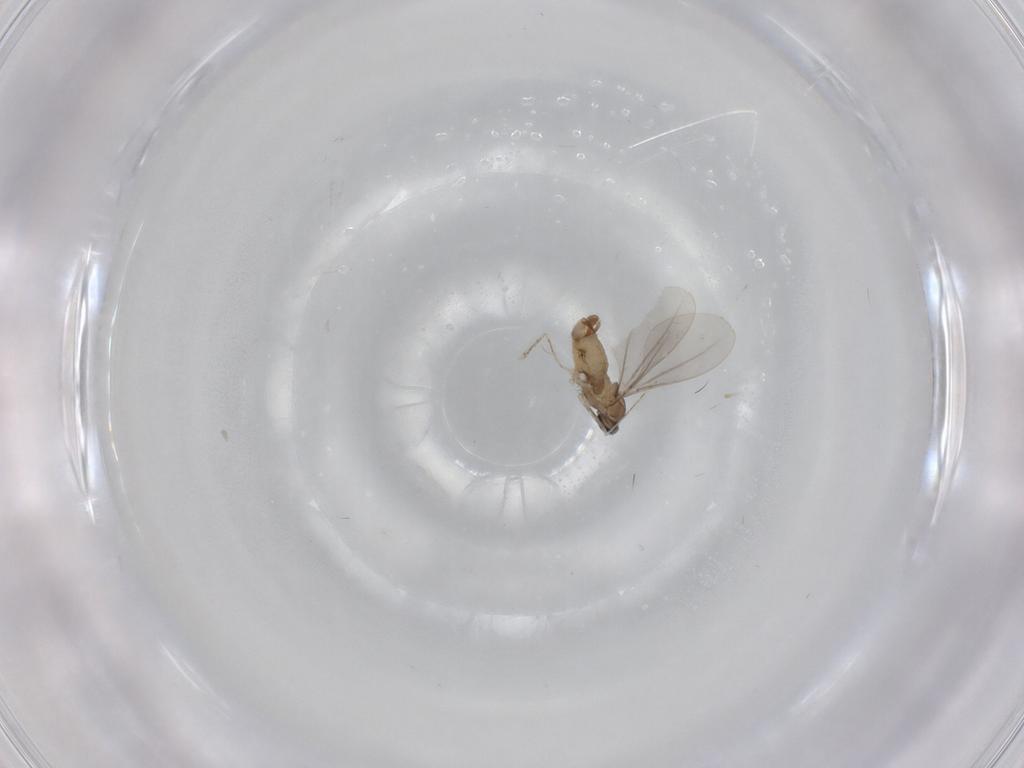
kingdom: Animalia
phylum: Arthropoda
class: Insecta
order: Diptera
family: Cecidomyiidae
